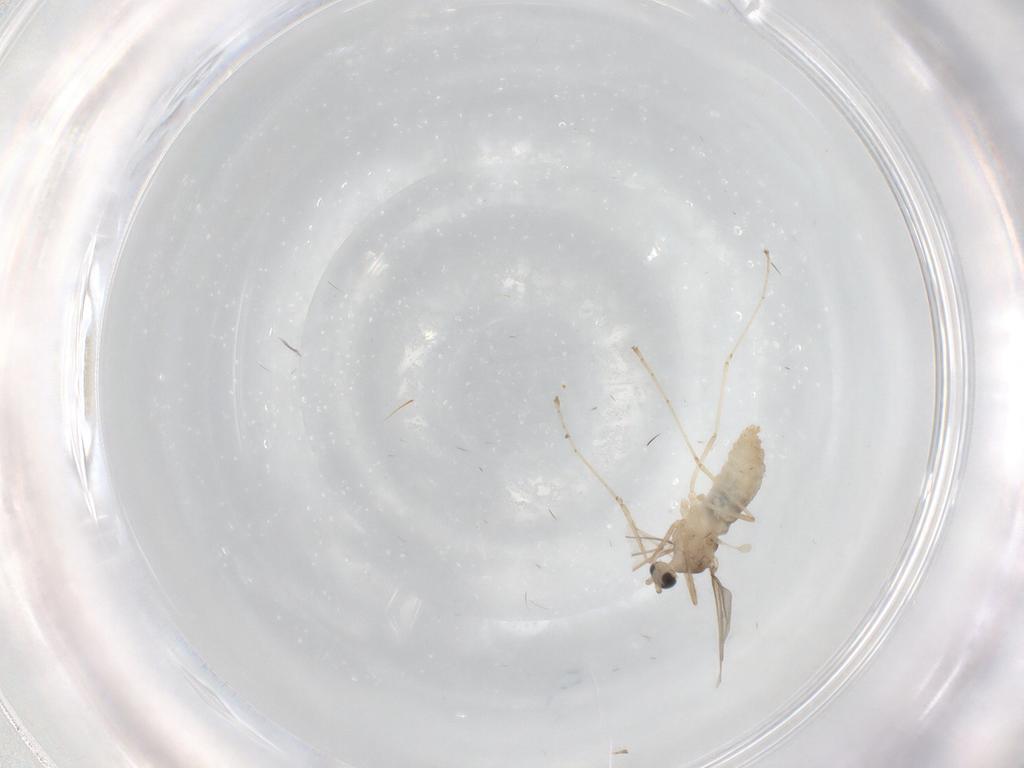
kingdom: Animalia
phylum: Arthropoda
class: Insecta
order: Diptera
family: Cecidomyiidae
